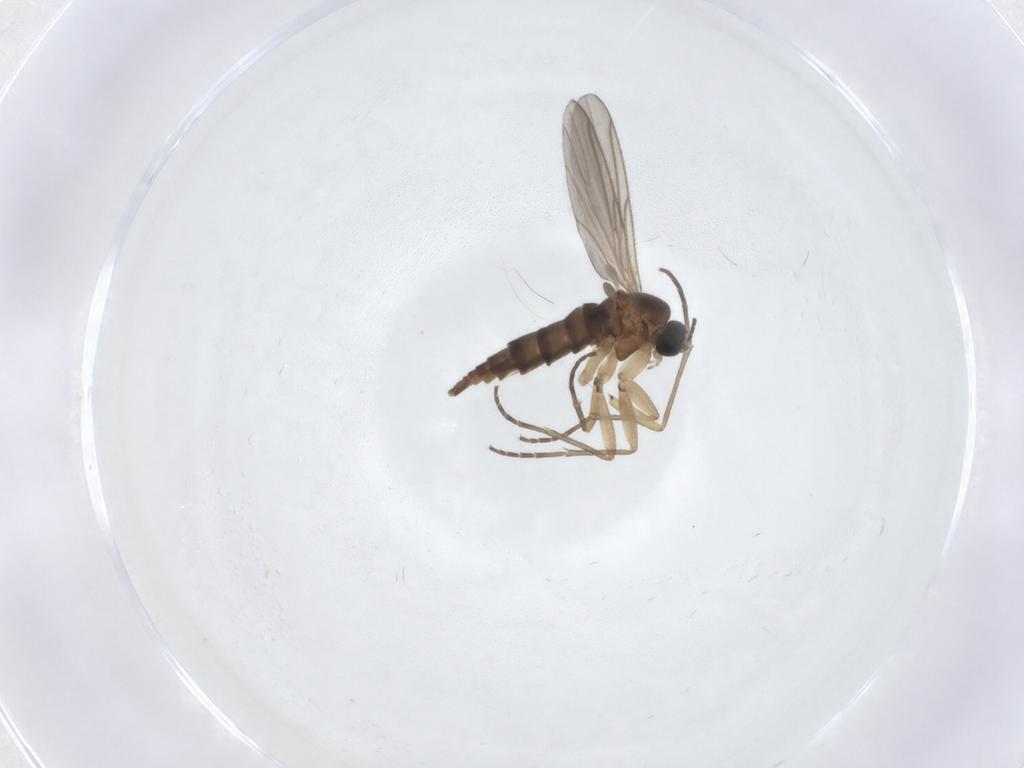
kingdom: Animalia
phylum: Arthropoda
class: Insecta
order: Diptera
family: Sciaridae
